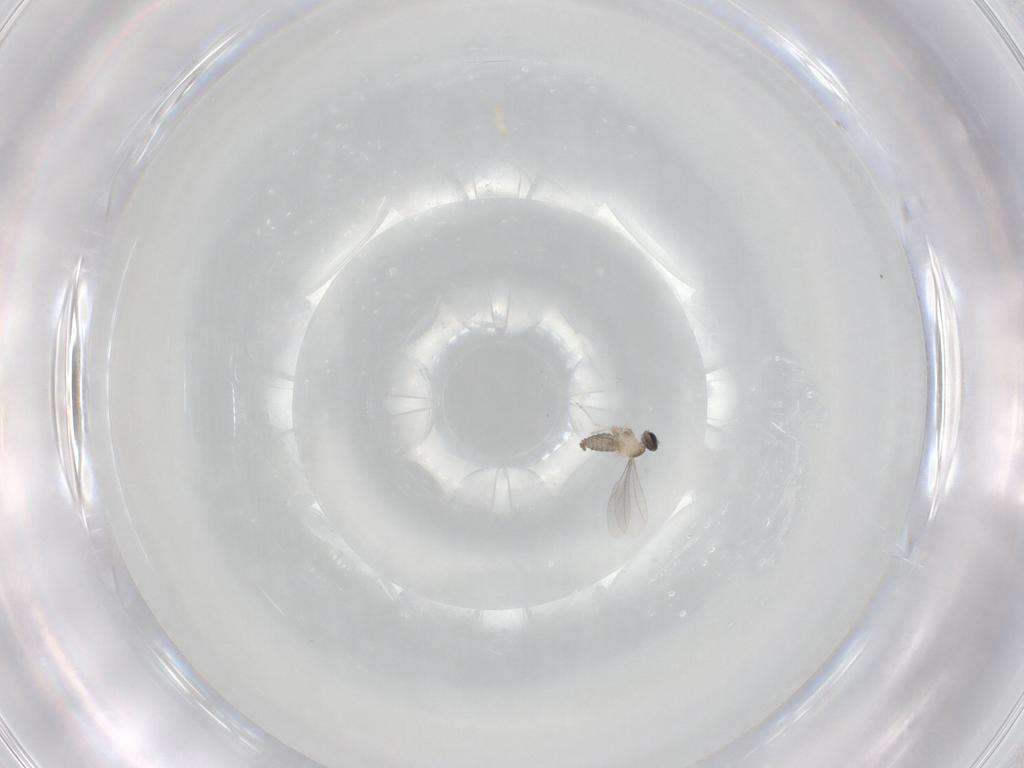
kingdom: Animalia
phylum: Arthropoda
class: Insecta
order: Diptera
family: Cecidomyiidae
